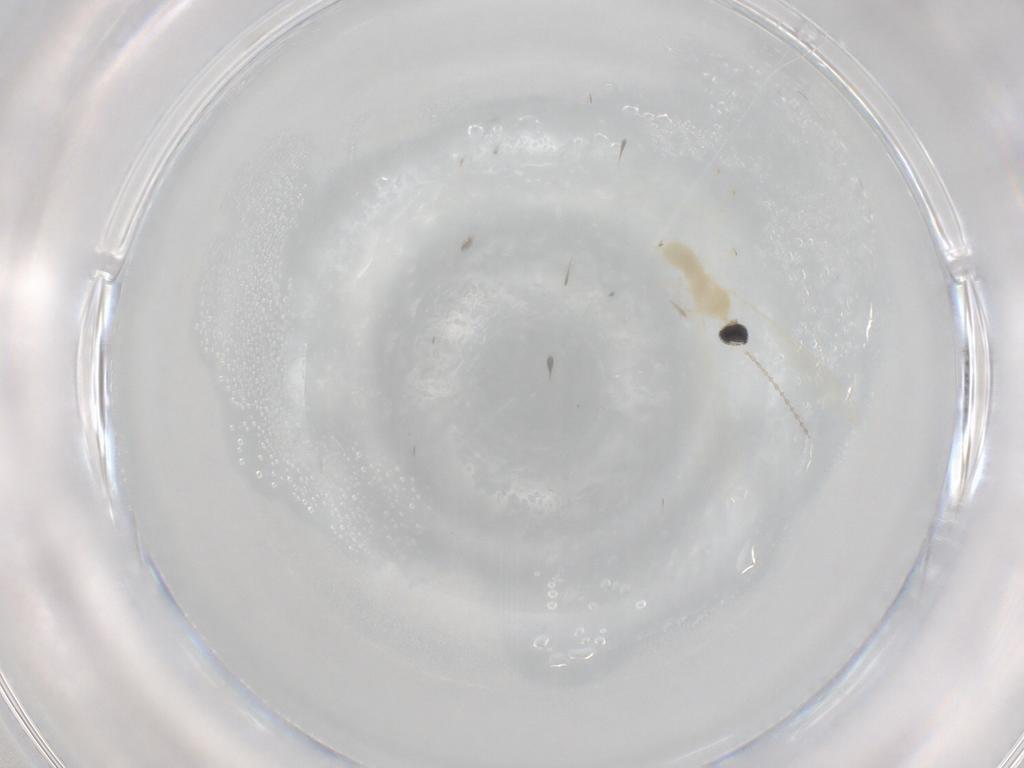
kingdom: Animalia
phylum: Arthropoda
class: Insecta
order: Diptera
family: Cecidomyiidae
